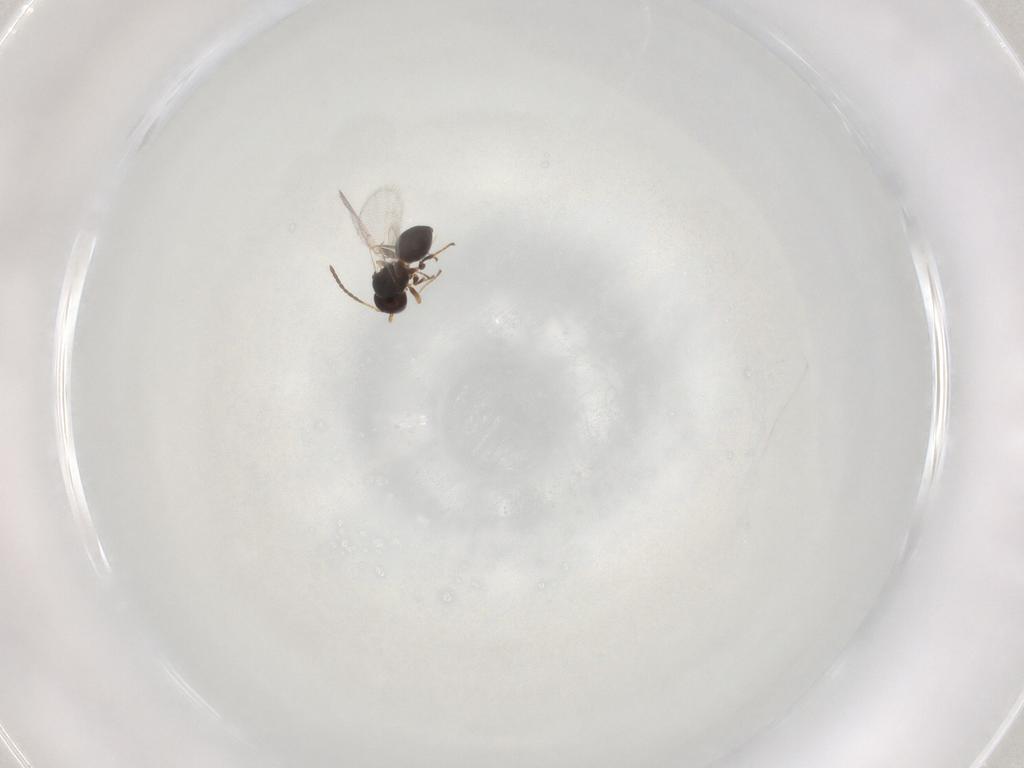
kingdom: Animalia
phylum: Arthropoda
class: Insecta
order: Hymenoptera
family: Figitidae
